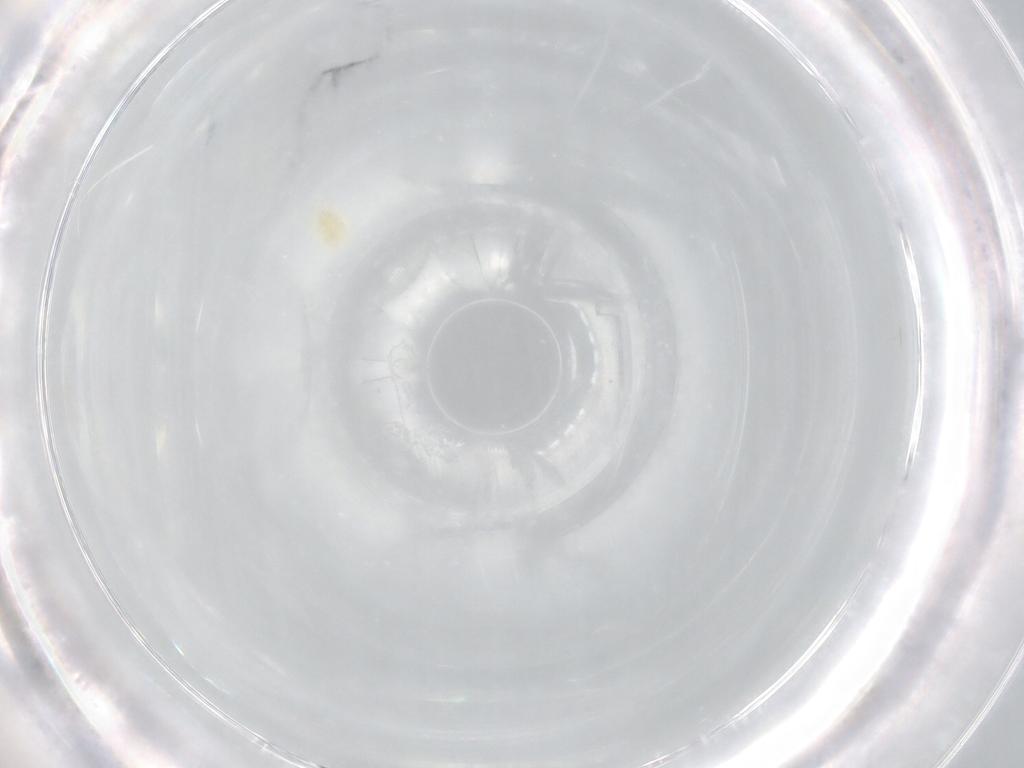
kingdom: Animalia
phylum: Arthropoda
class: Arachnida
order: Trombidiformes
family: Eupodidae
